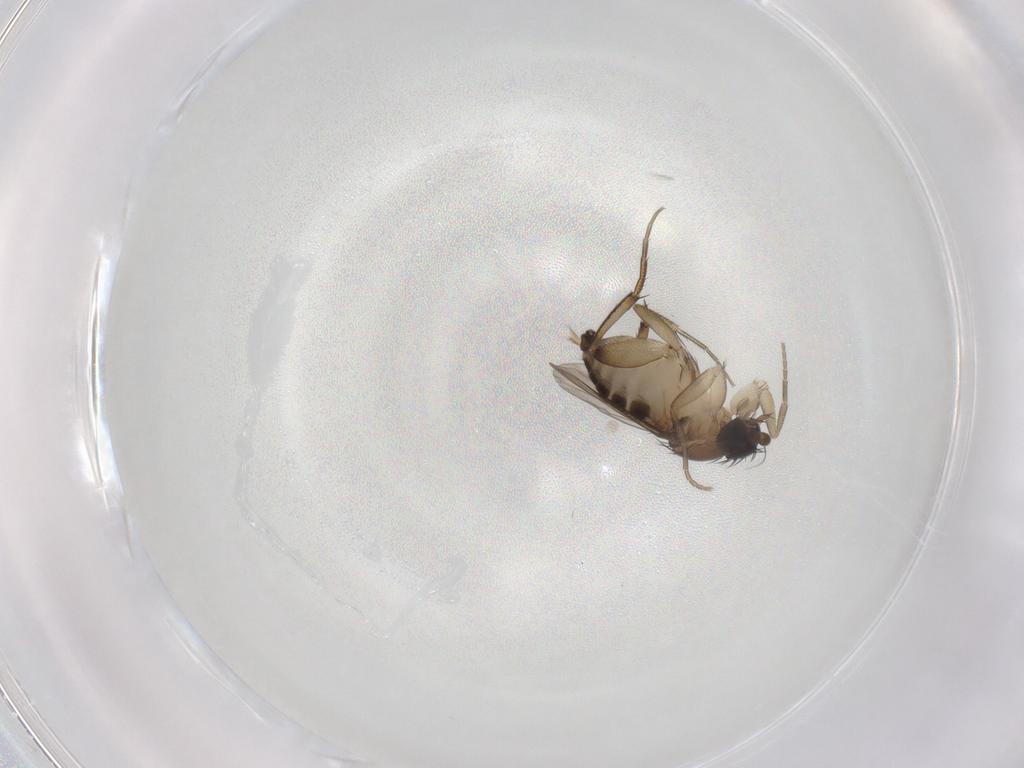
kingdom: Animalia
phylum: Arthropoda
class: Insecta
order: Diptera
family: Phoridae
